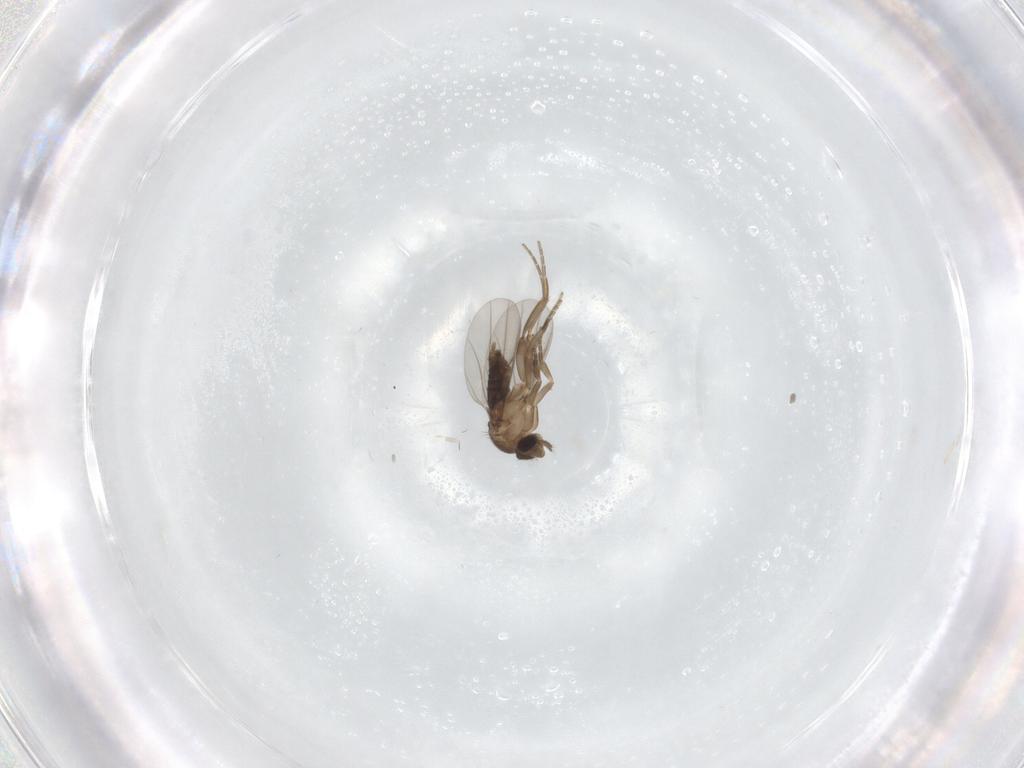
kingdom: Animalia
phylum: Arthropoda
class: Insecta
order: Diptera
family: Phoridae
